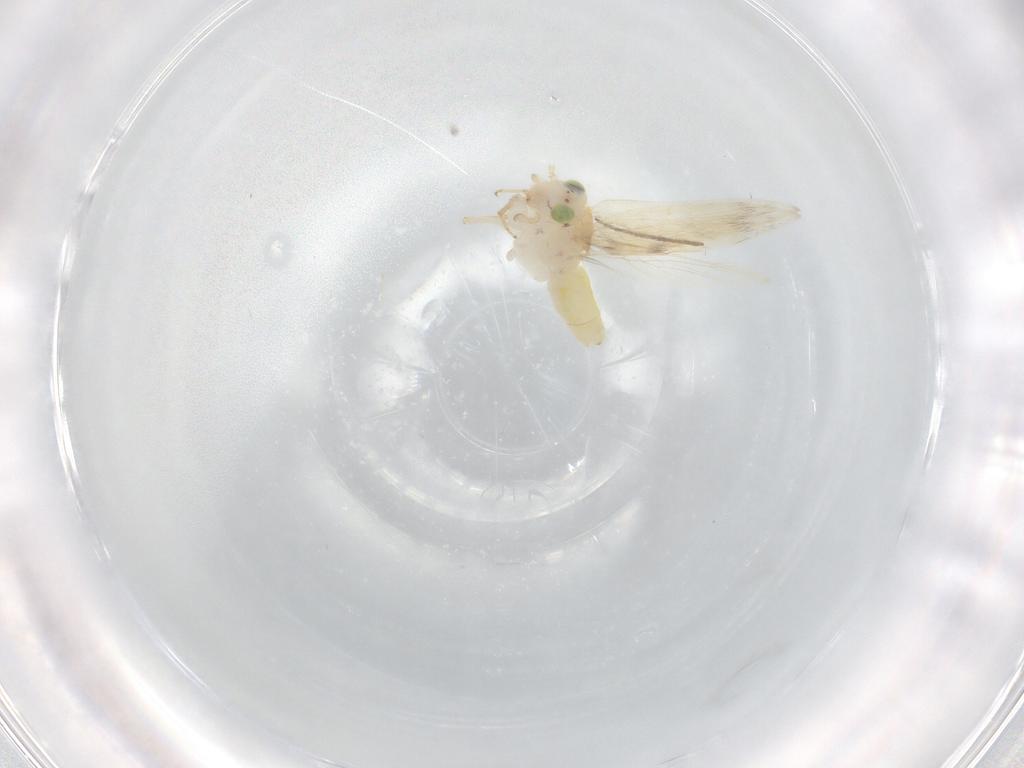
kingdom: Animalia
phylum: Arthropoda
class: Insecta
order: Psocodea
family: Lepidopsocidae
